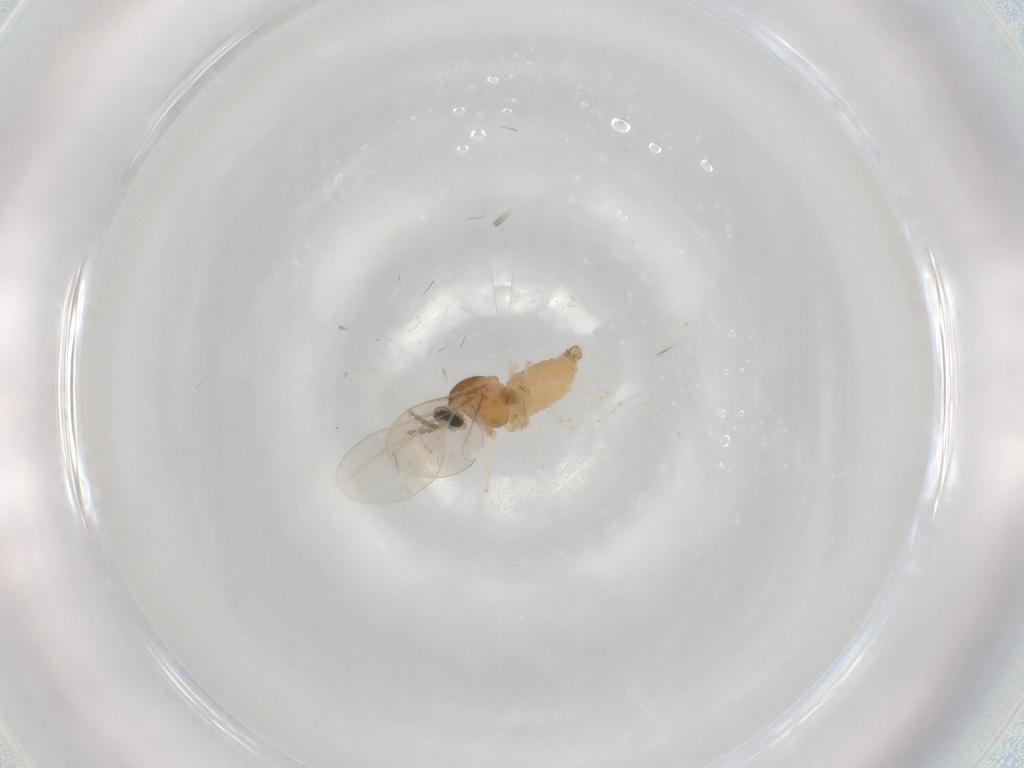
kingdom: Animalia
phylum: Arthropoda
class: Insecta
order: Diptera
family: Cecidomyiidae
